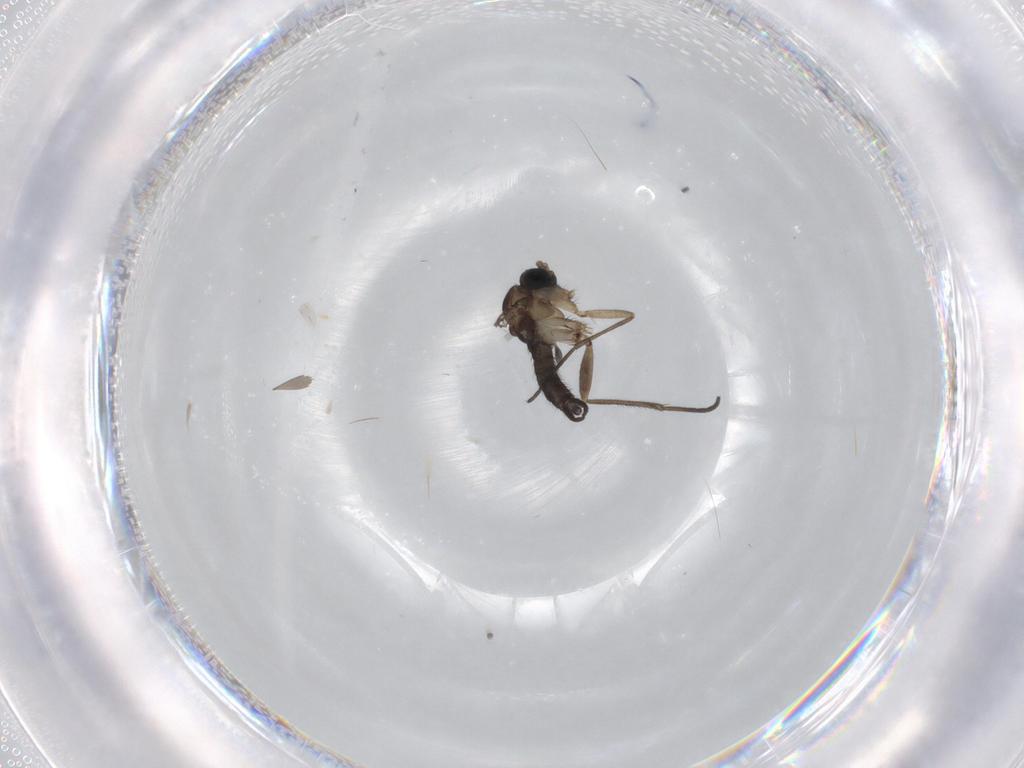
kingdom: Animalia
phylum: Arthropoda
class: Insecta
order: Diptera
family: Sciaridae
